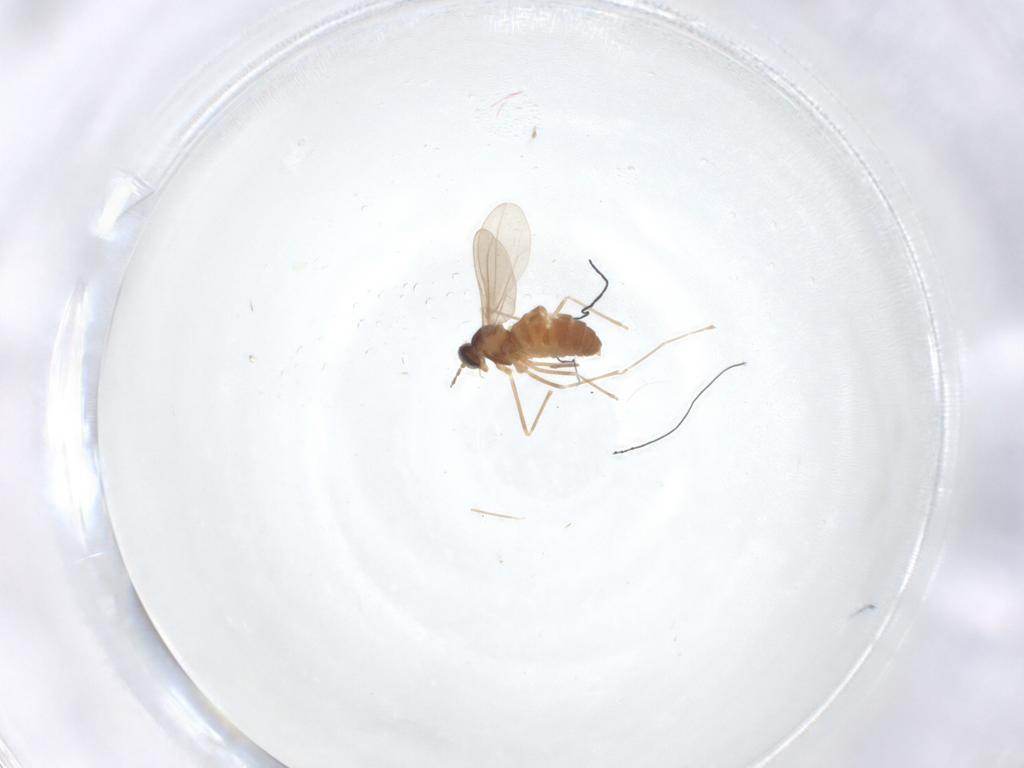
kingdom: Animalia
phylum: Arthropoda
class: Insecta
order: Diptera
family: Cecidomyiidae
